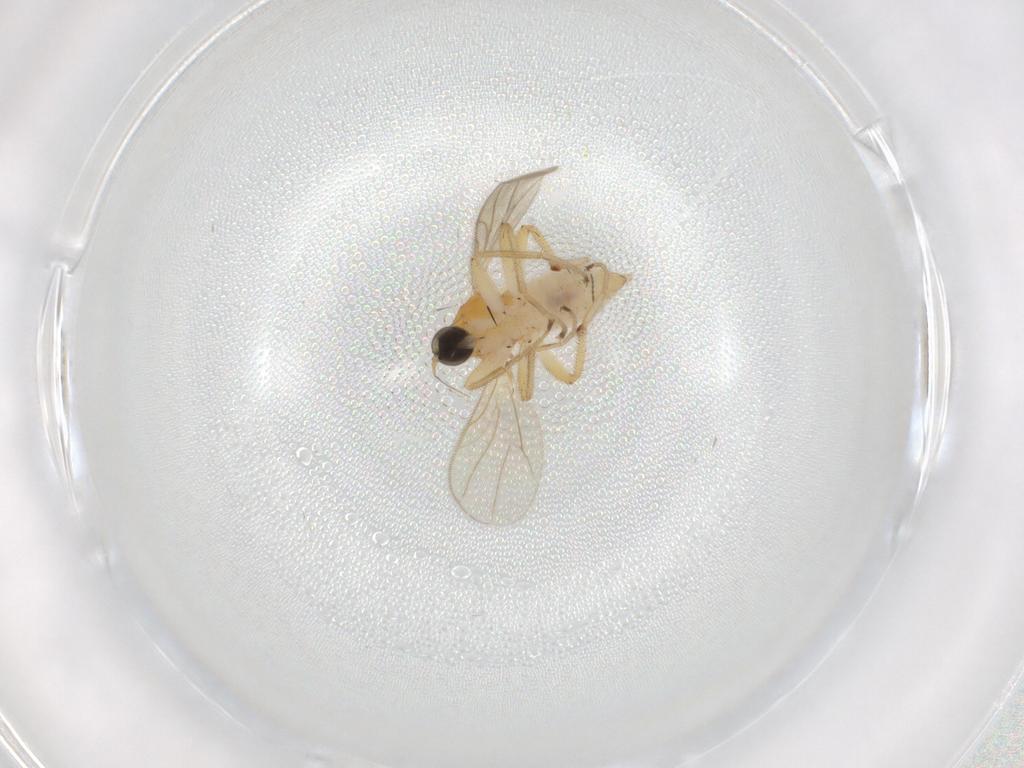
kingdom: Animalia
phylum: Arthropoda
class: Insecta
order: Diptera
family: Hybotidae
